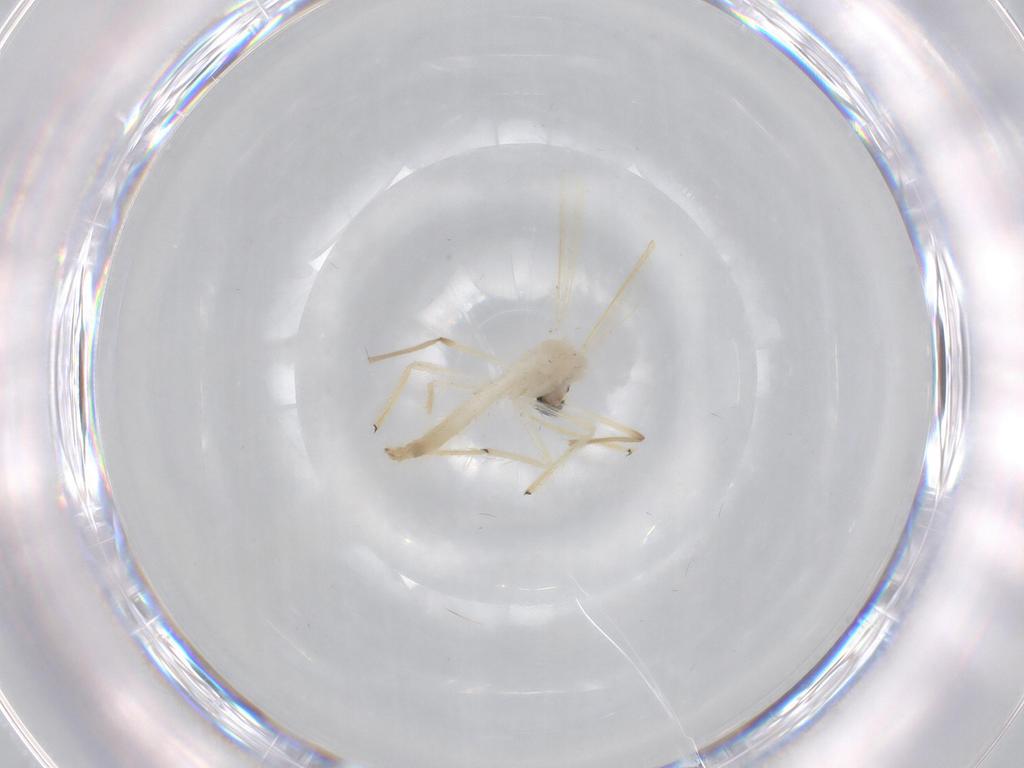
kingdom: Animalia
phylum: Arthropoda
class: Insecta
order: Diptera
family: Chironomidae
